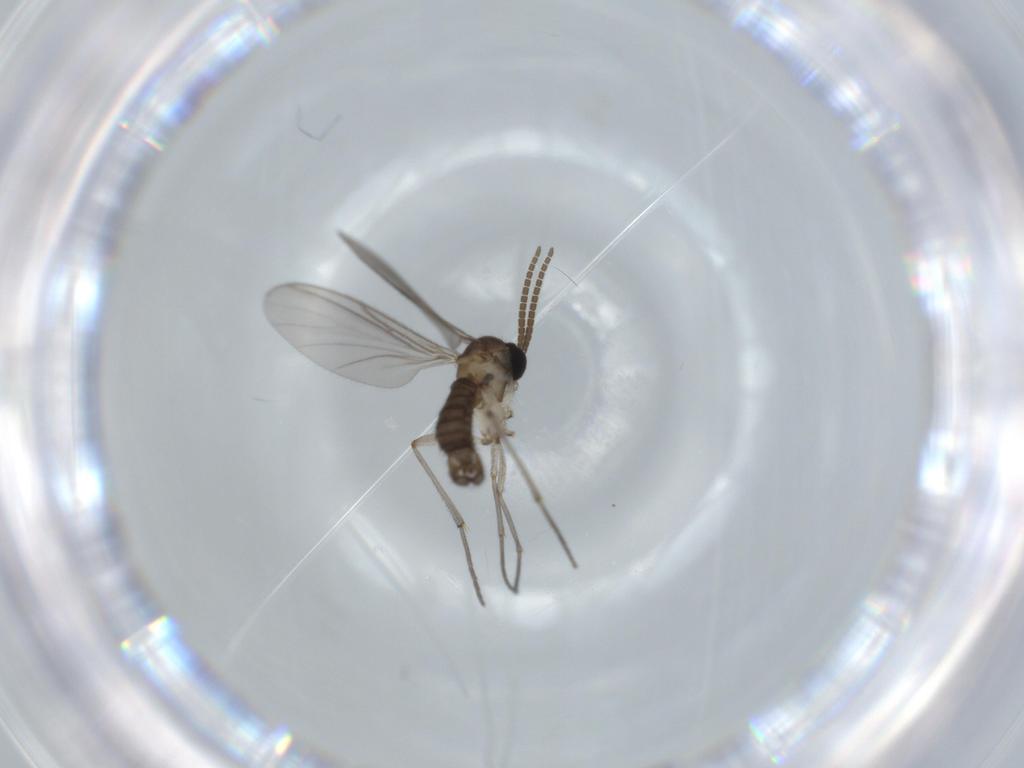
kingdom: Animalia
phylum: Arthropoda
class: Insecta
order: Diptera
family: Sciaridae
